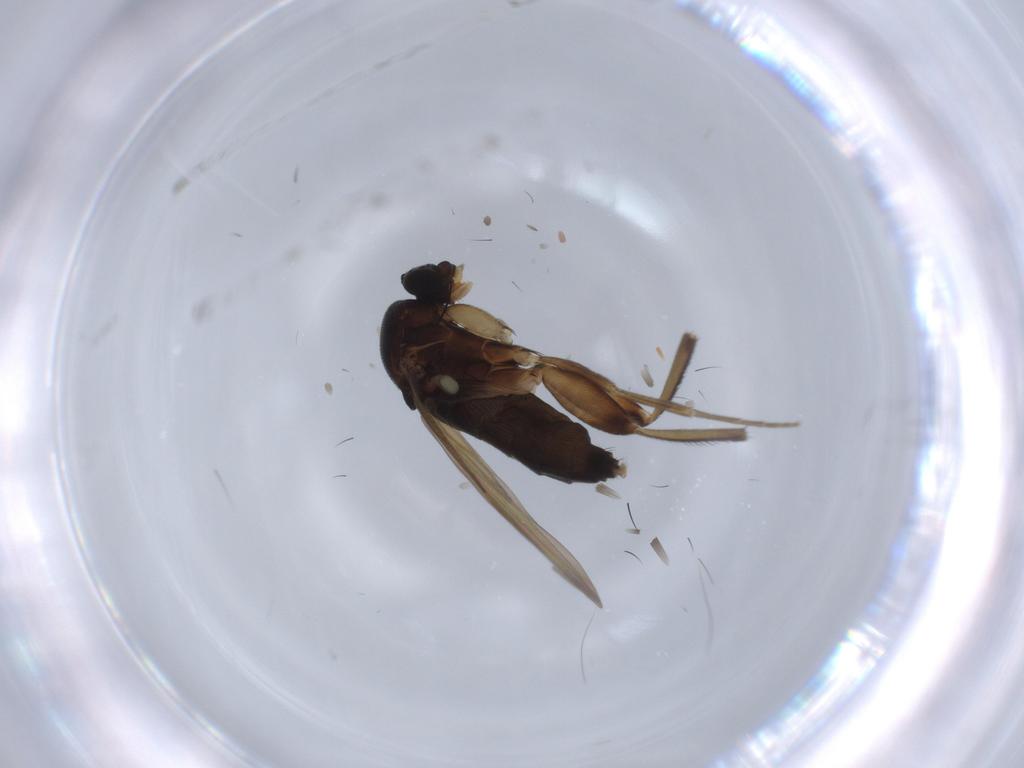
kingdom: Animalia
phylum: Arthropoda
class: Insecta
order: Diptera
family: Phoridae
